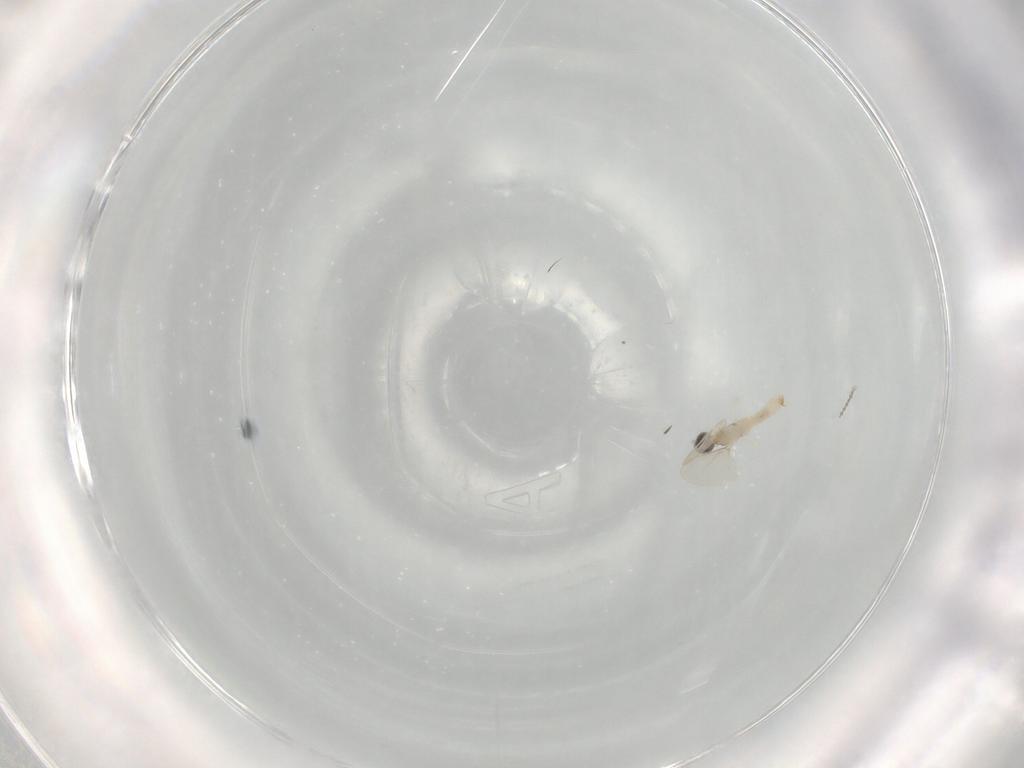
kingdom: Animalia
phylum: Arthropoda
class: Insecta
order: Diptera
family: Cecidomyiidae
